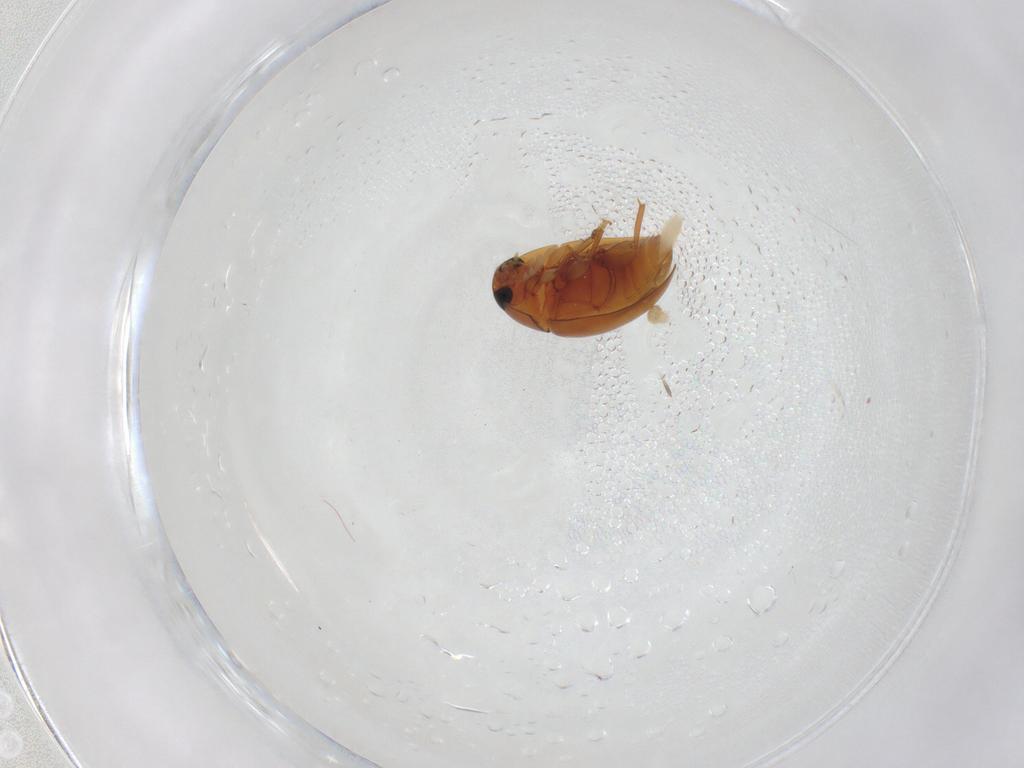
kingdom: Animalia
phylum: Arthropoda
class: Insecta
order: Coleoptera
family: Phalacridae
